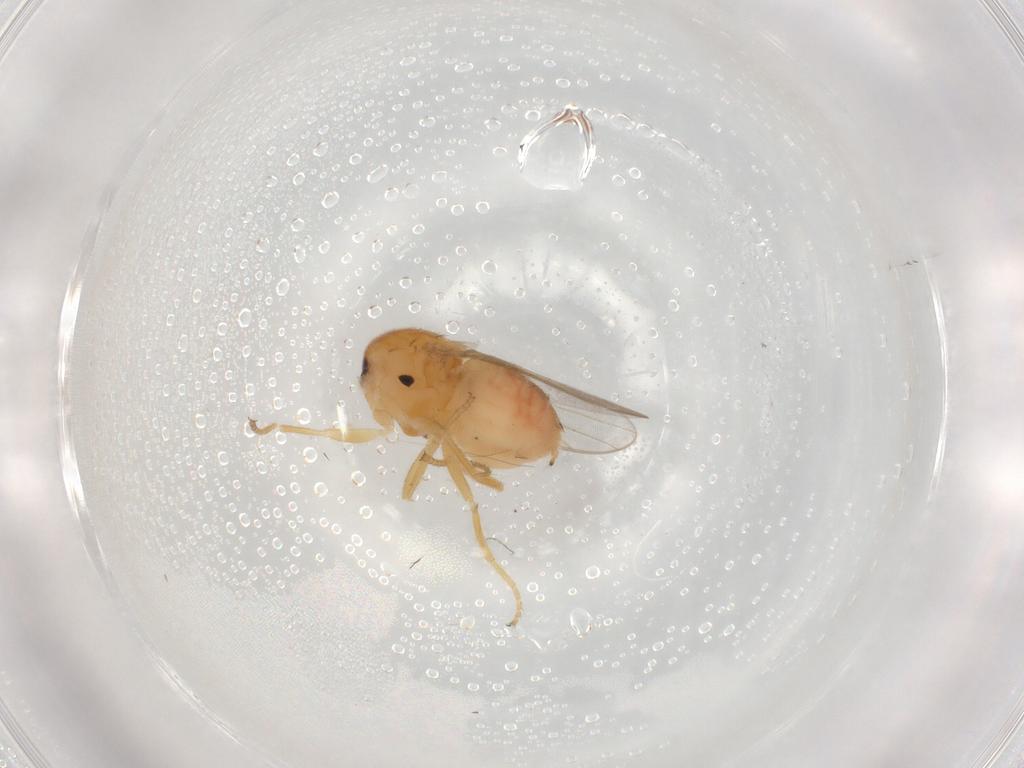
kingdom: Animalia
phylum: Arthropoda
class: Insecta
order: Diptera
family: Chloropidae
